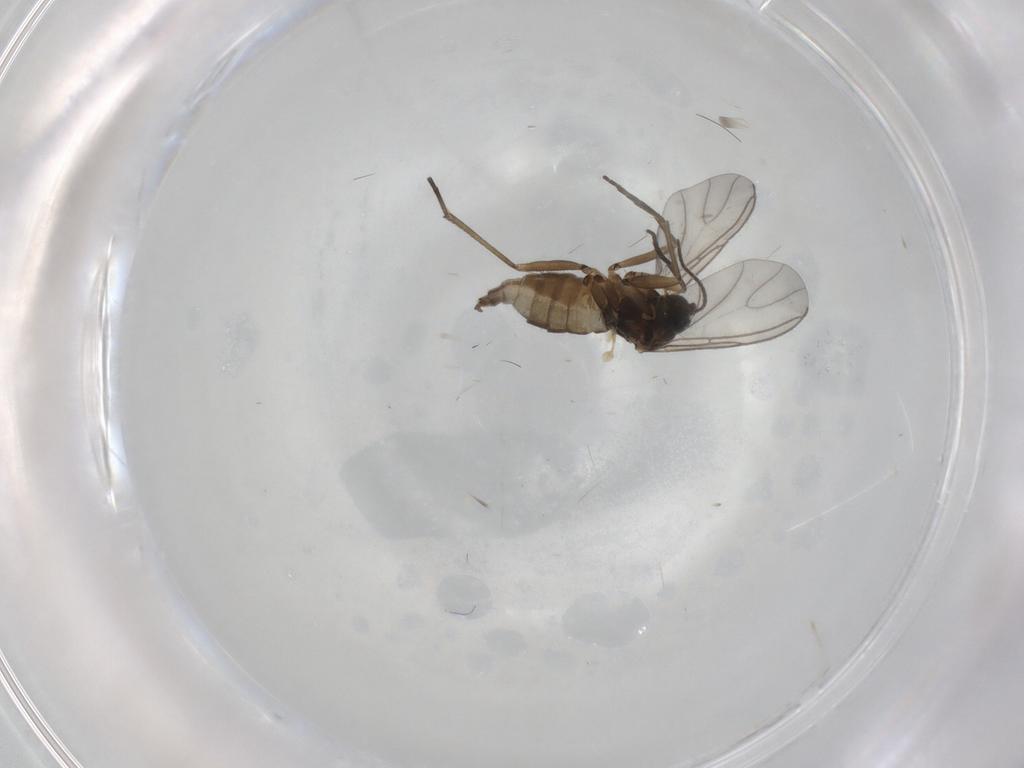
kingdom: Animalia
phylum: Arthropoda
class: Insecta
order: Diptera
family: Sciaridae
